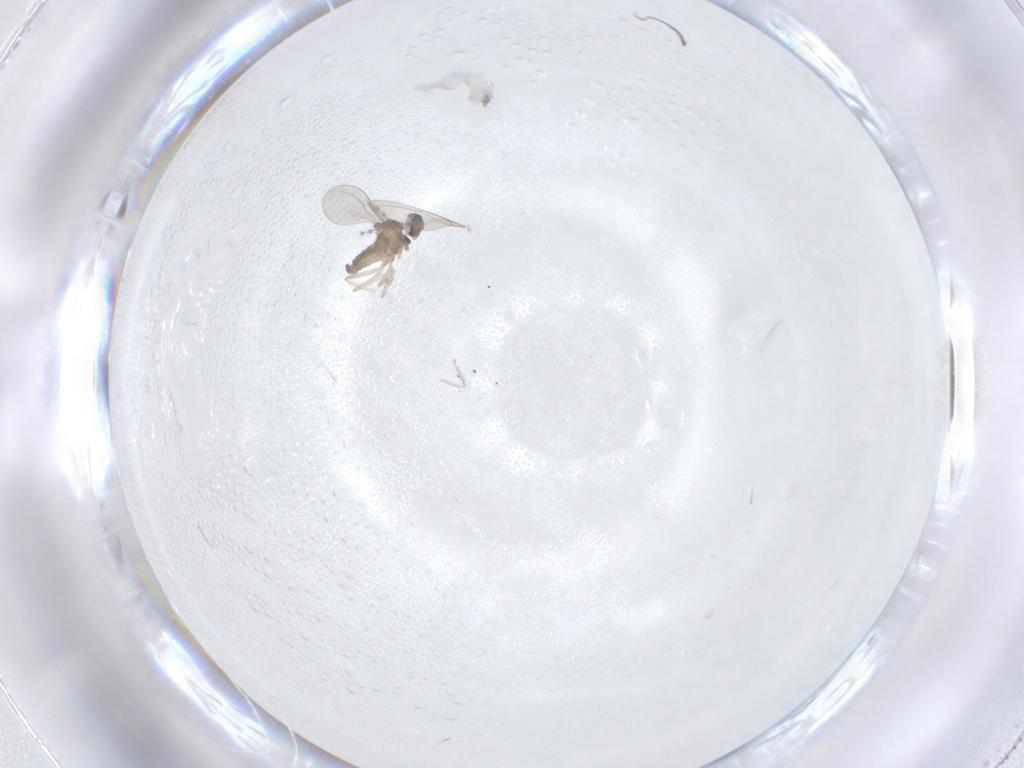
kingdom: Animalia
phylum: Arthropoda
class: Insecta
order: Diptera
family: Cecidomyiidae
